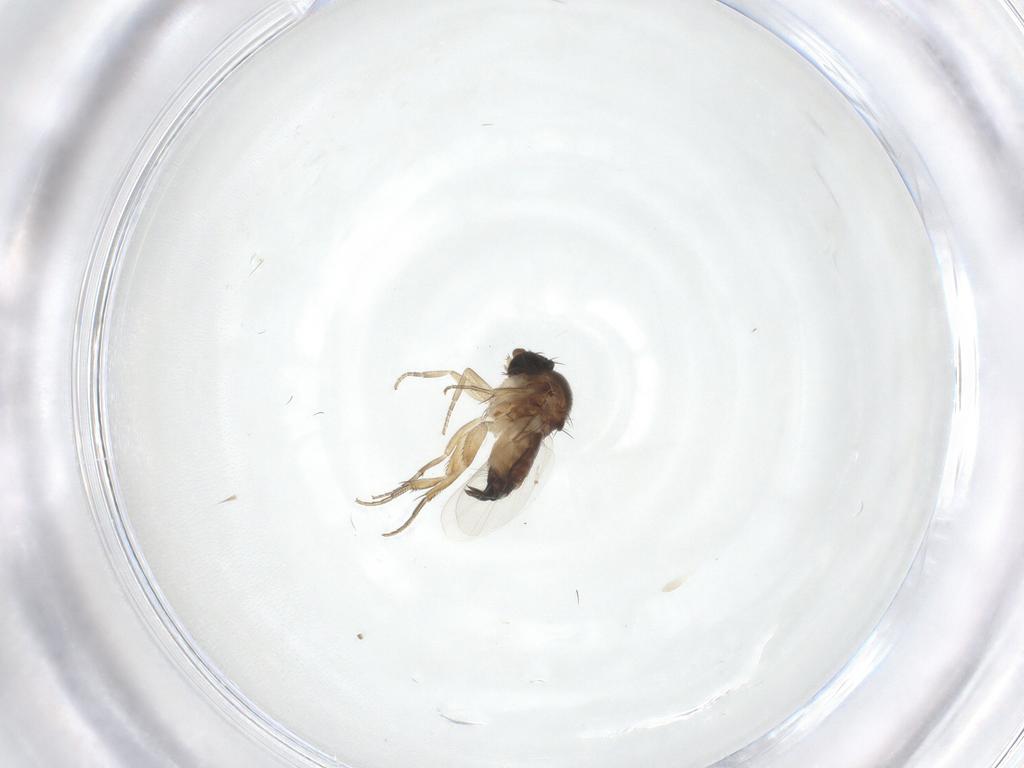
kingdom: Animalia
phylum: Arthropoda
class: Insecta
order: Diptera
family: Phoridae
